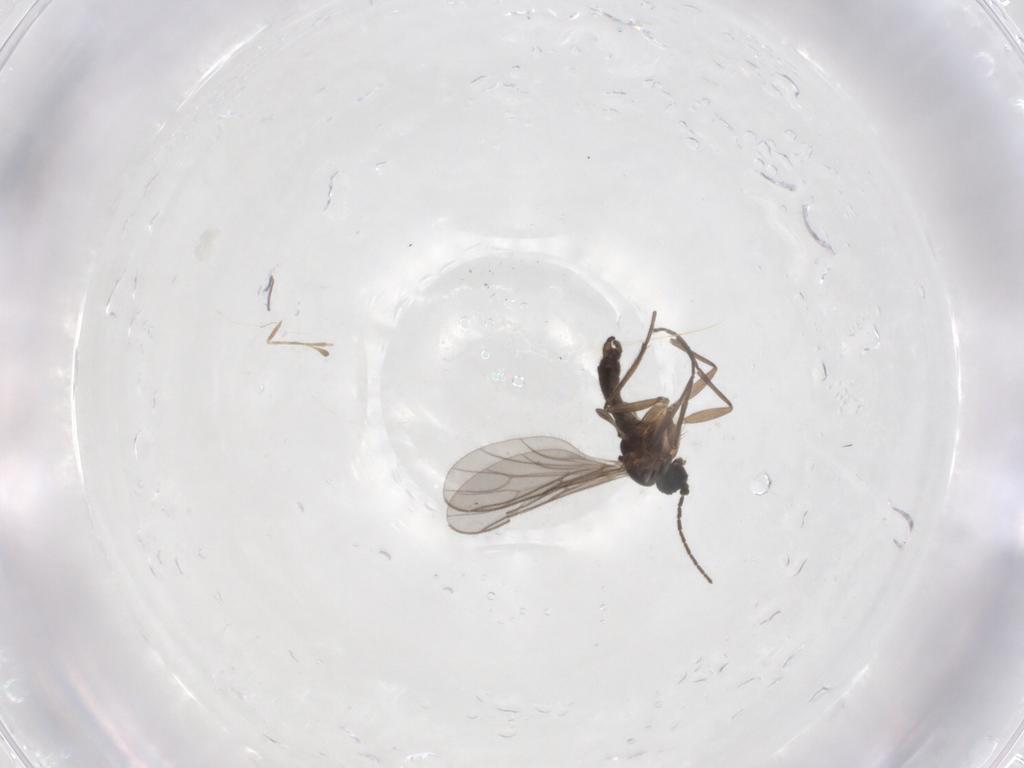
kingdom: Animalia
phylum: Arthropoda
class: Insecta
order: Diptera
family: Sciaridae
